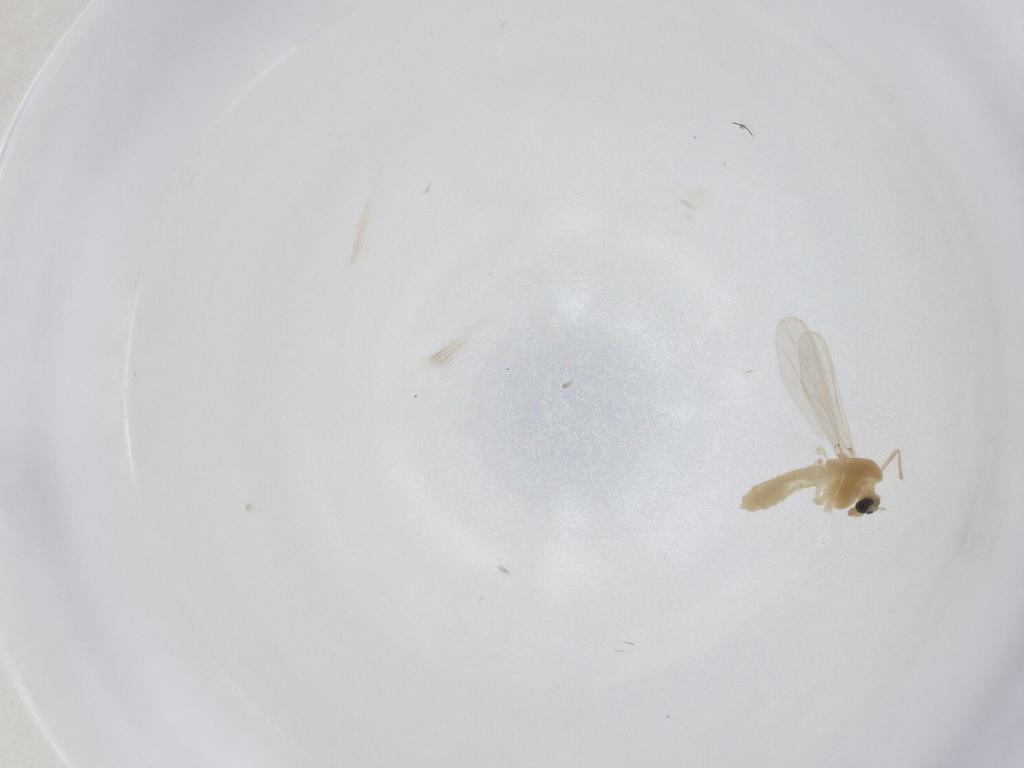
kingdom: Animalia
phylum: Arthropoda
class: Insecta
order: Diptera
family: Chironomidae
